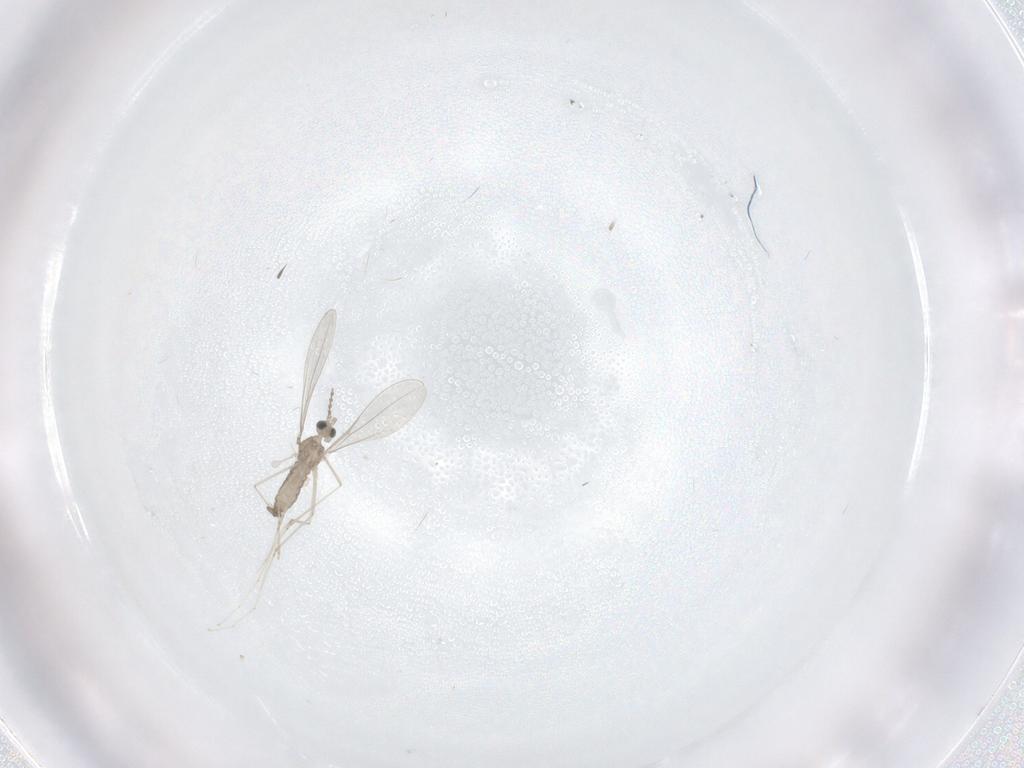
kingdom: Animalia
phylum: Arthropoda
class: Insecta
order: Diptera
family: Cecidomyiidae
